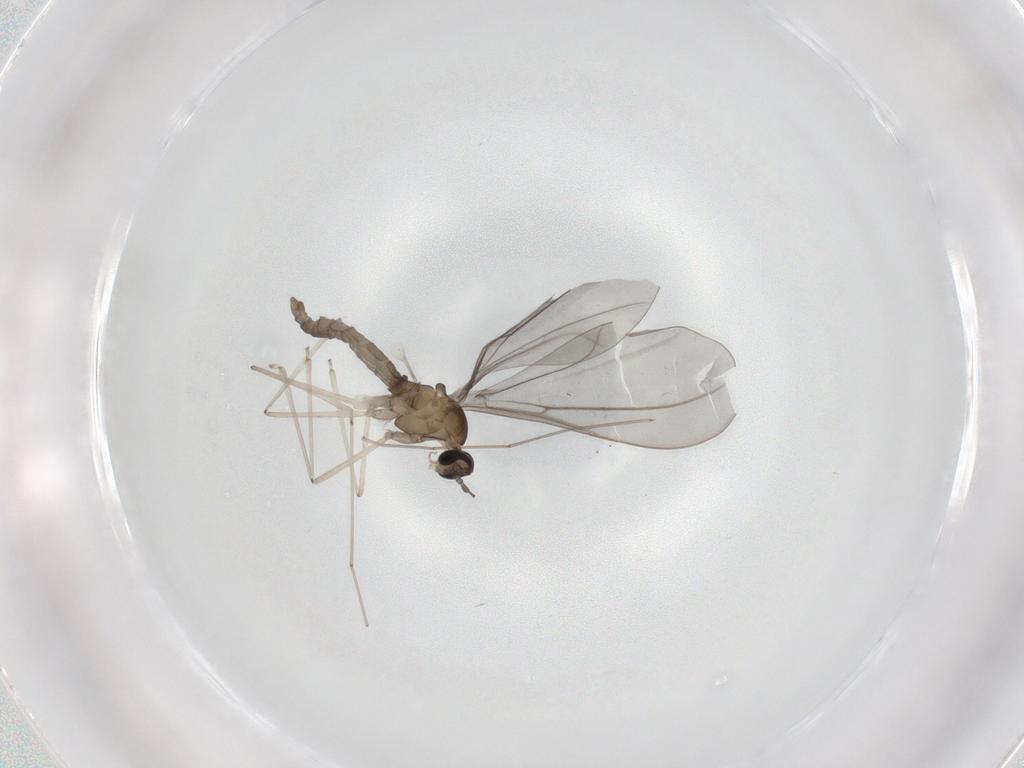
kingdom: Animalia
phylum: Arthropoda
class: Insecta
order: Diptera
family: Cecidomyiidae
